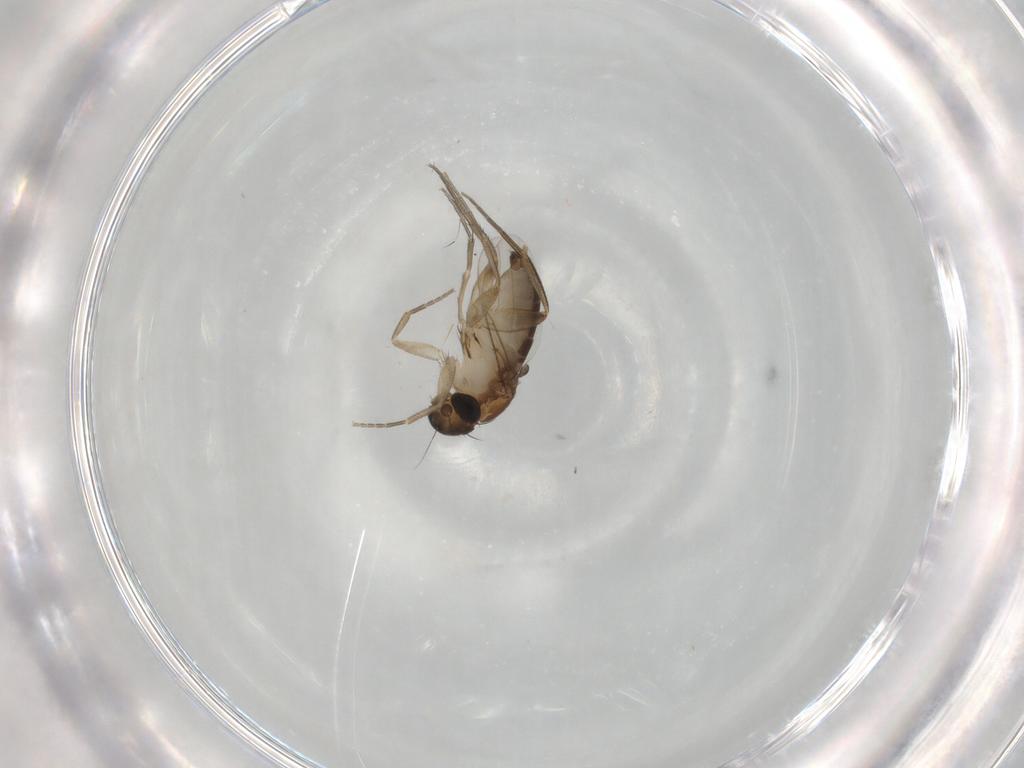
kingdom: Animalia
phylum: Arthropoda
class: Insecta
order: Diptera
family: Phoridae
